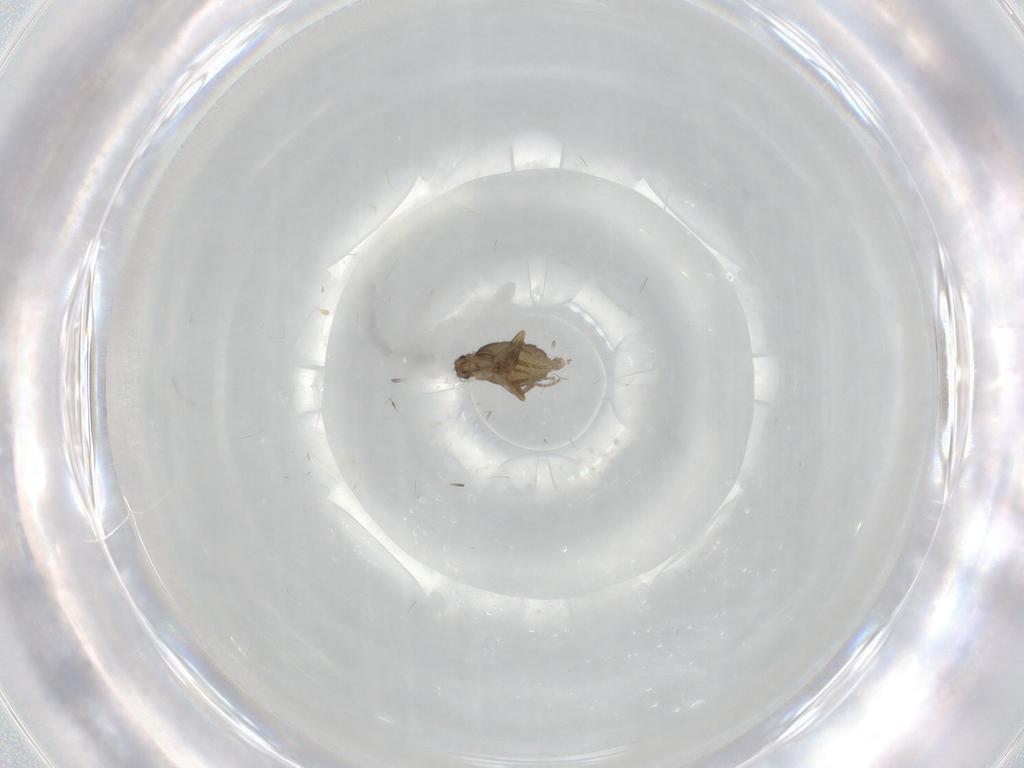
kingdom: Animalia
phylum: Arthropoda
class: Insecta
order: Diptera
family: Phoridae
